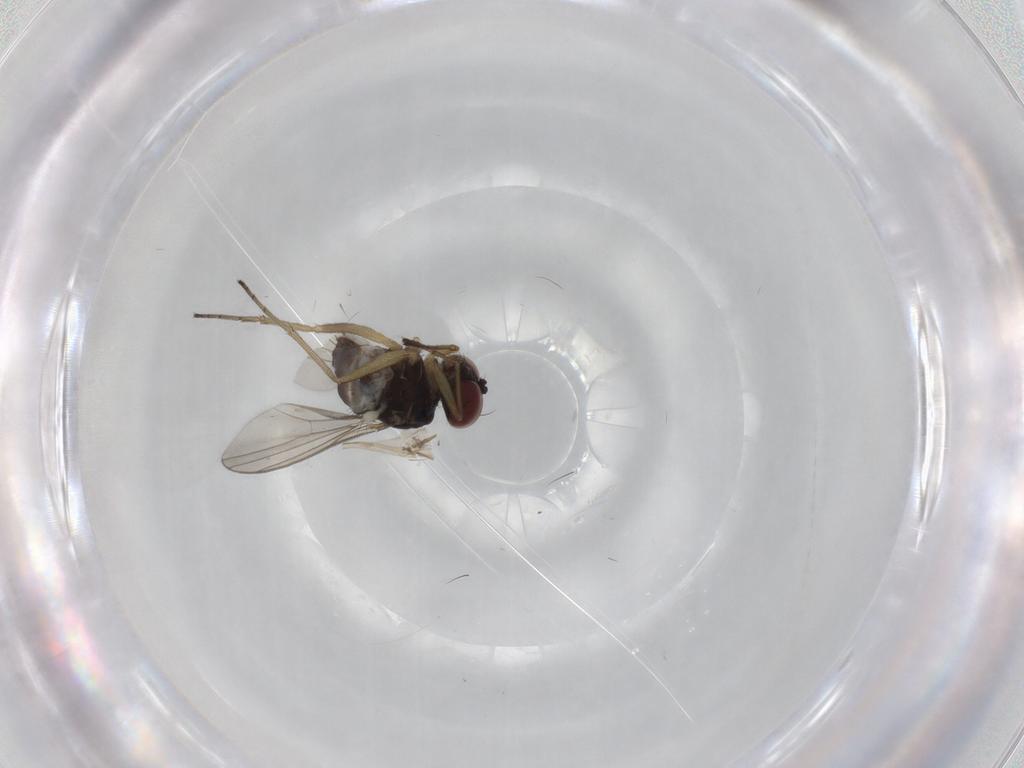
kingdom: Animalia
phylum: Arthropoda
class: Insecta
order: Diptera
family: Dolichopodidae
